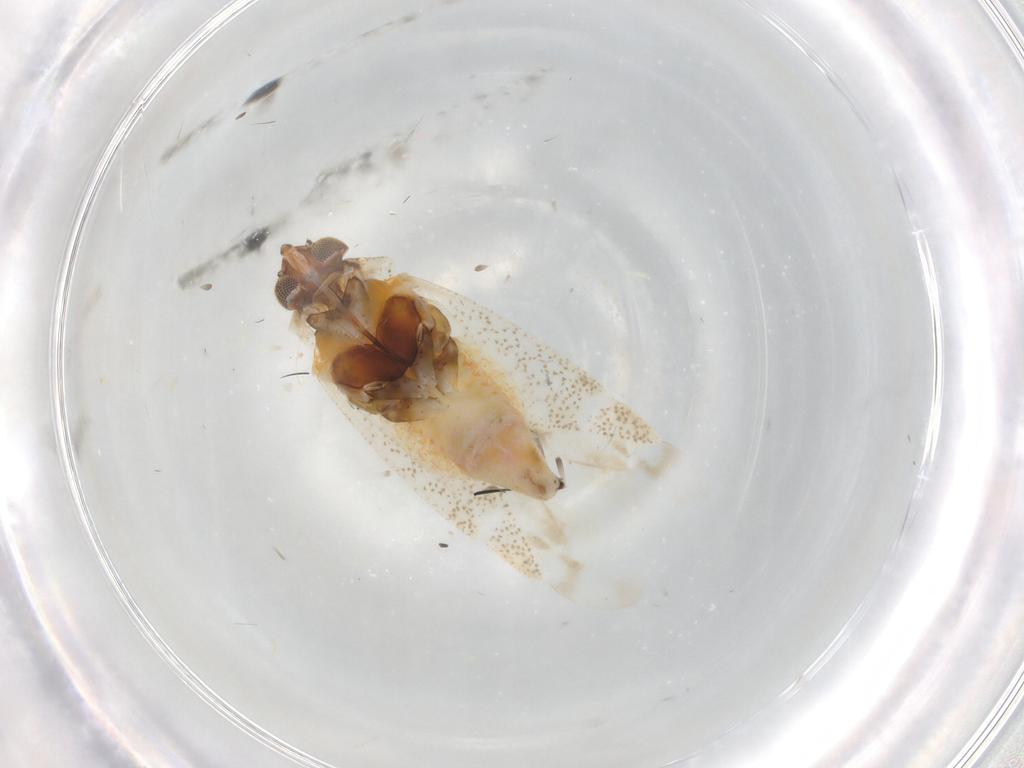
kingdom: Animalia
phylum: Arthropoda
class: Insecta
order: Hemiptera
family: Miridae
